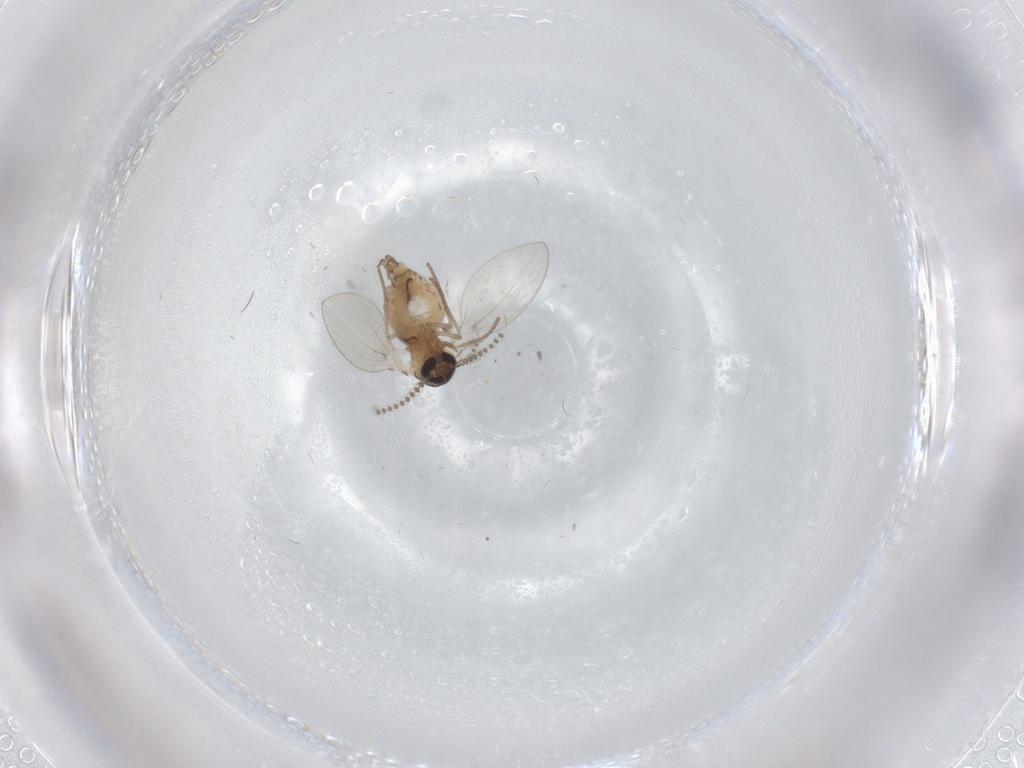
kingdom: Animalia
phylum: Arthropoda
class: Insecta
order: Diptera
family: Psychodidae
